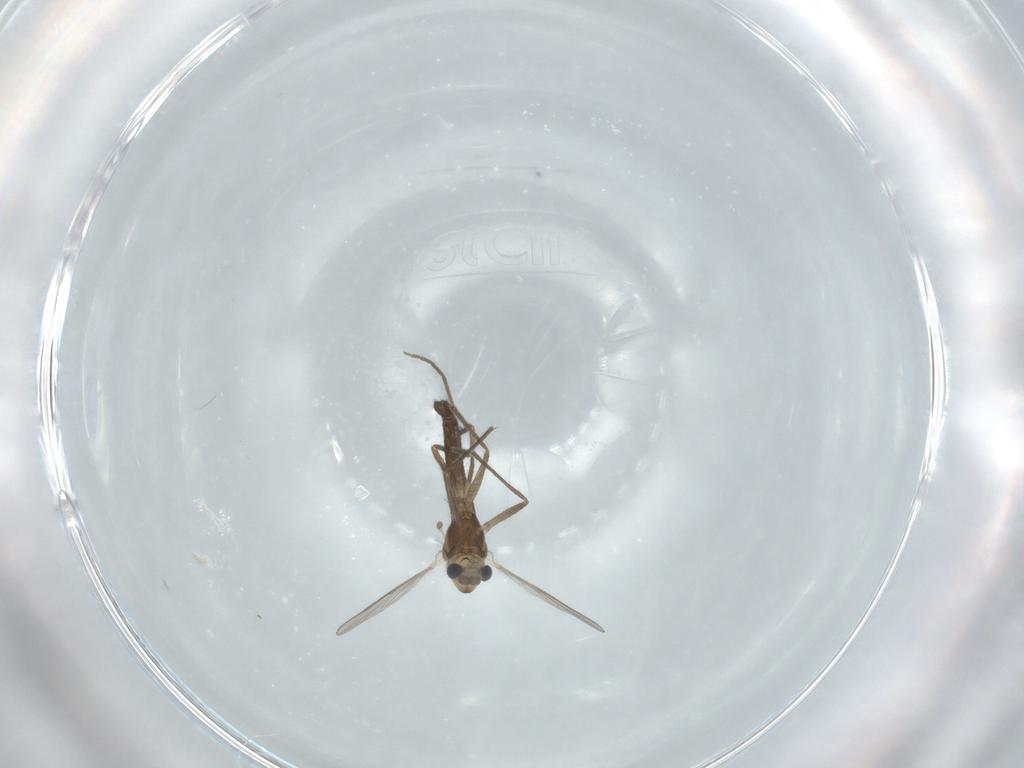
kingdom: Animalia
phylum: Arthropoda
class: Insecta
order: Diptera
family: Chironomidae
